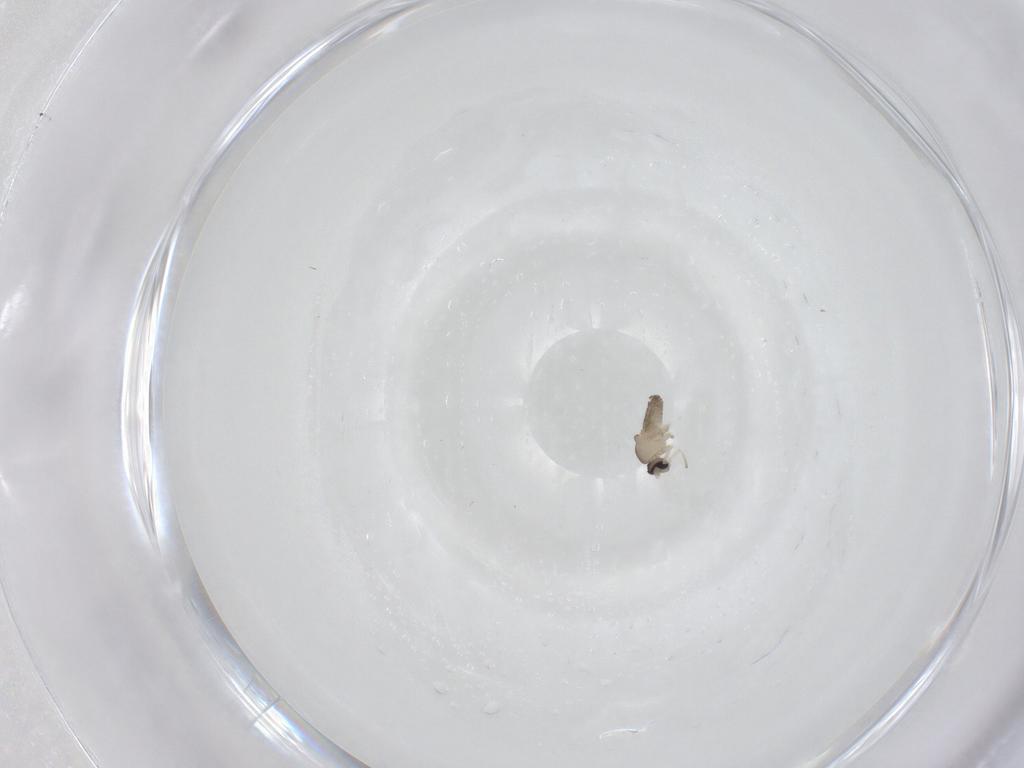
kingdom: Animalia
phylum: Arthropoda
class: Insecta
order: Diptera
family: Cecidomyiidae
